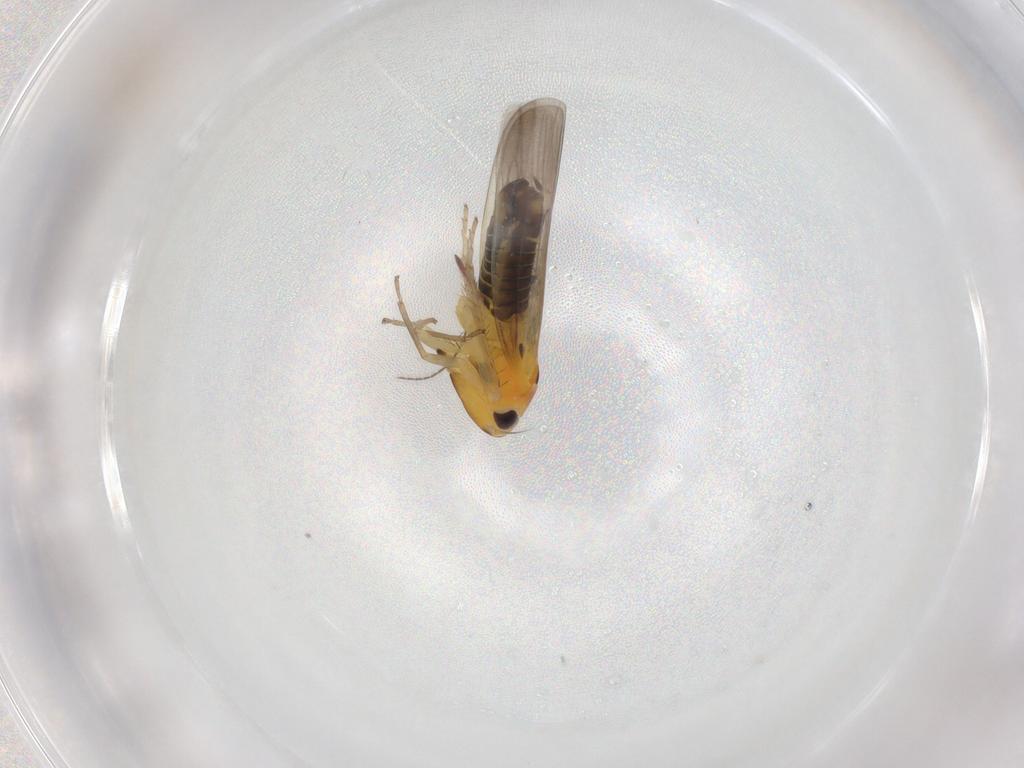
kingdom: Animalia
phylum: Arthropoda
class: Insecta
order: Hemiptera
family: Cicadellidae
